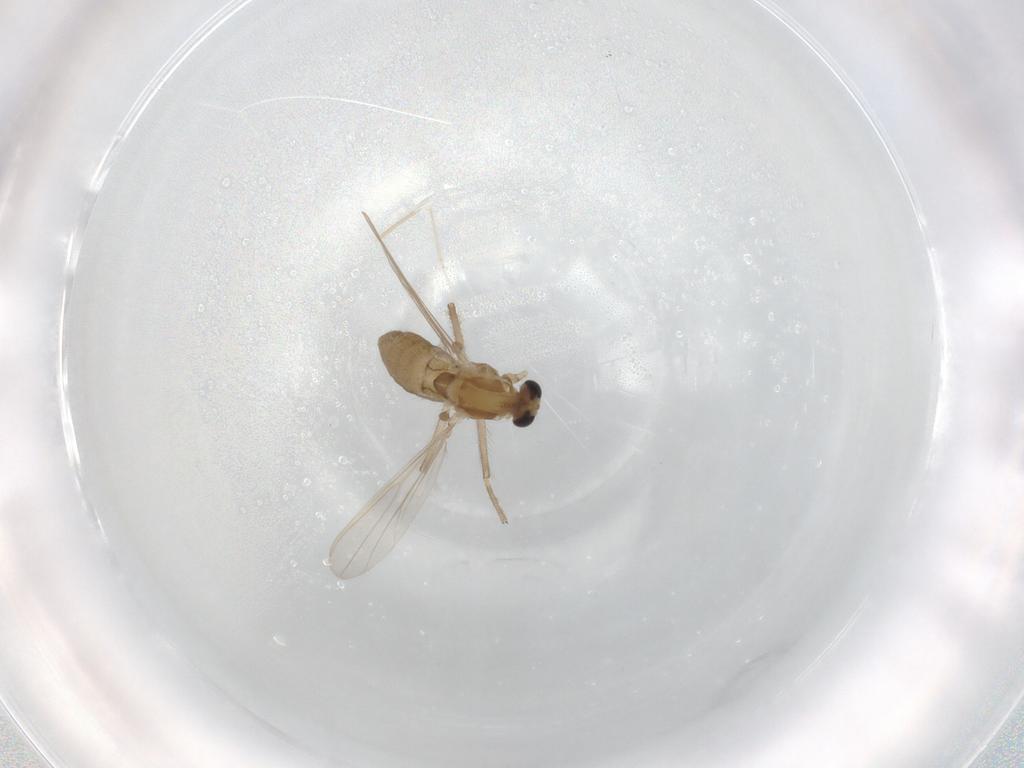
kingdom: Animalia
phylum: Arthropoda
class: Insecta
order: Diptera
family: Chironomidae
